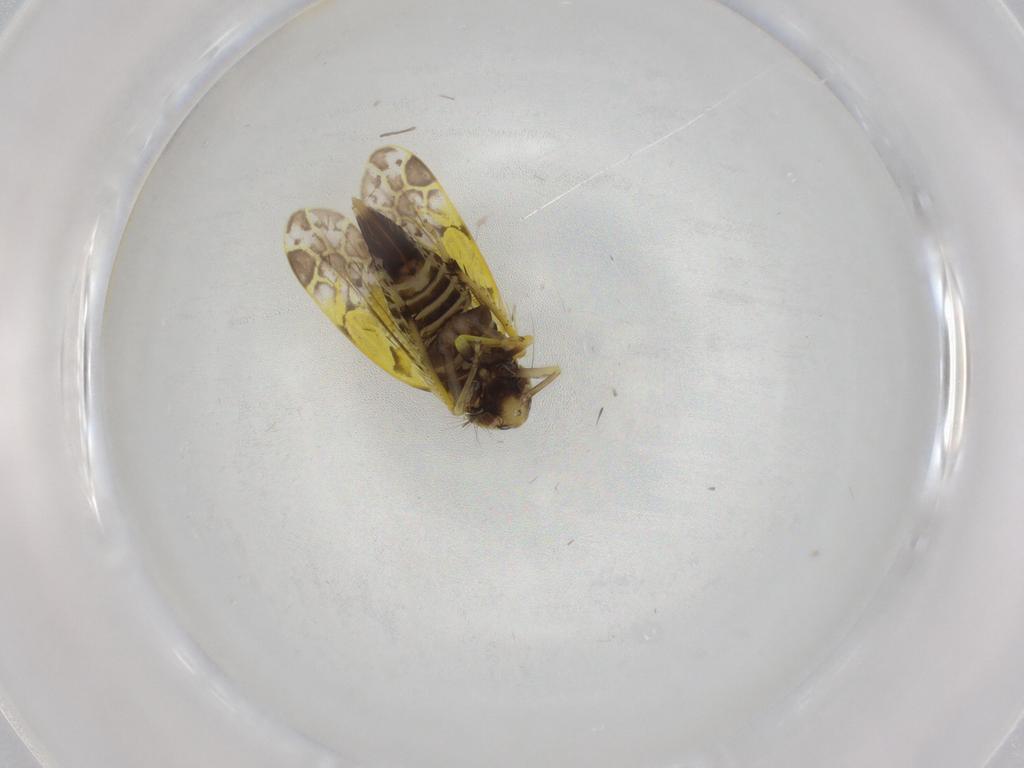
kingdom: Animalia
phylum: Arthropoda
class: Insecta
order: Hemiptera
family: Cicadellidae
